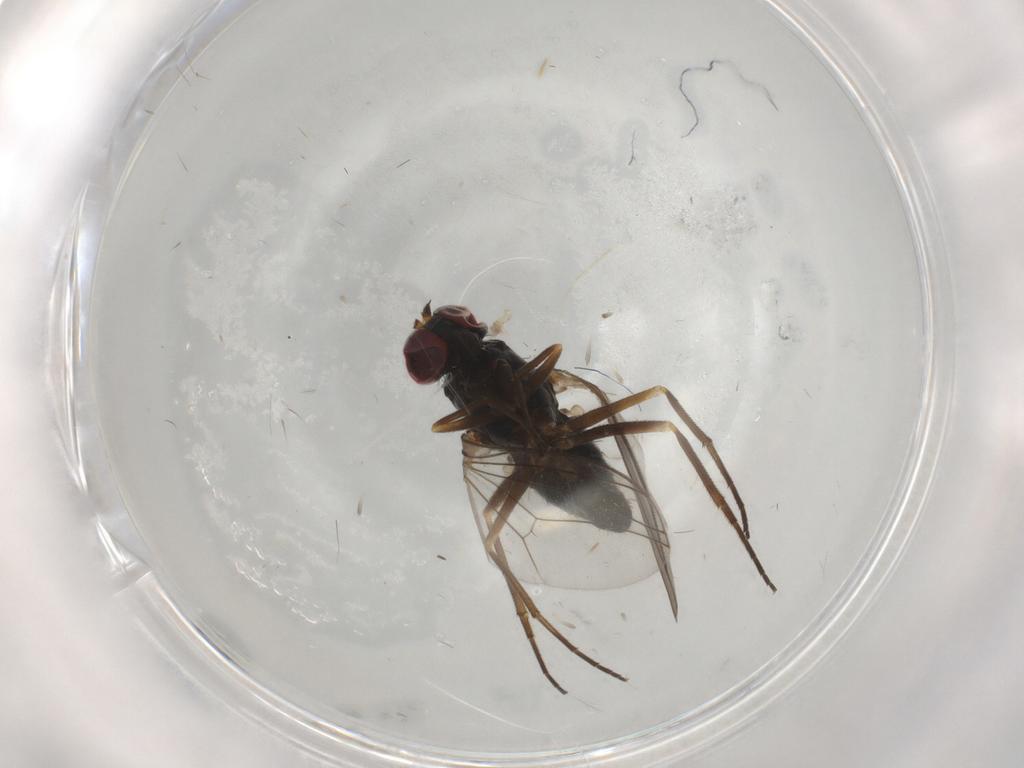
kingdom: Animalia
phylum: Arthropoda
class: Insecta
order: Diptera
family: Dolichopodidae
